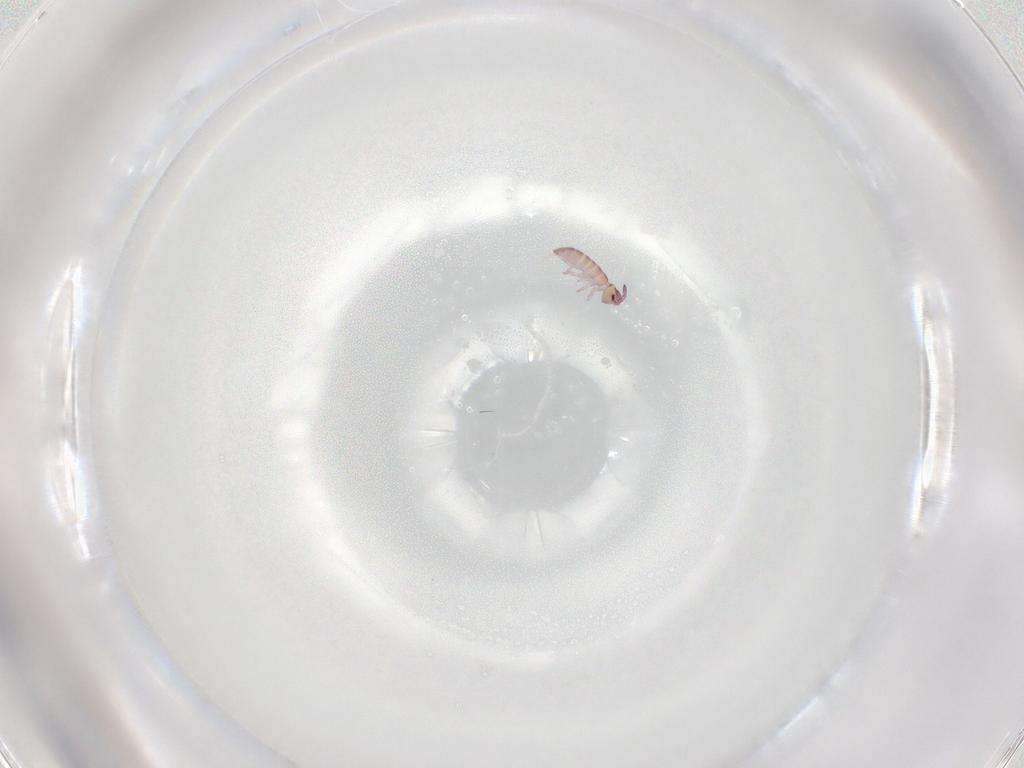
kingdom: Animalia
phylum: Arthropoda
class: Collembola
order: Entomobryomorpha
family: Isotomidae
